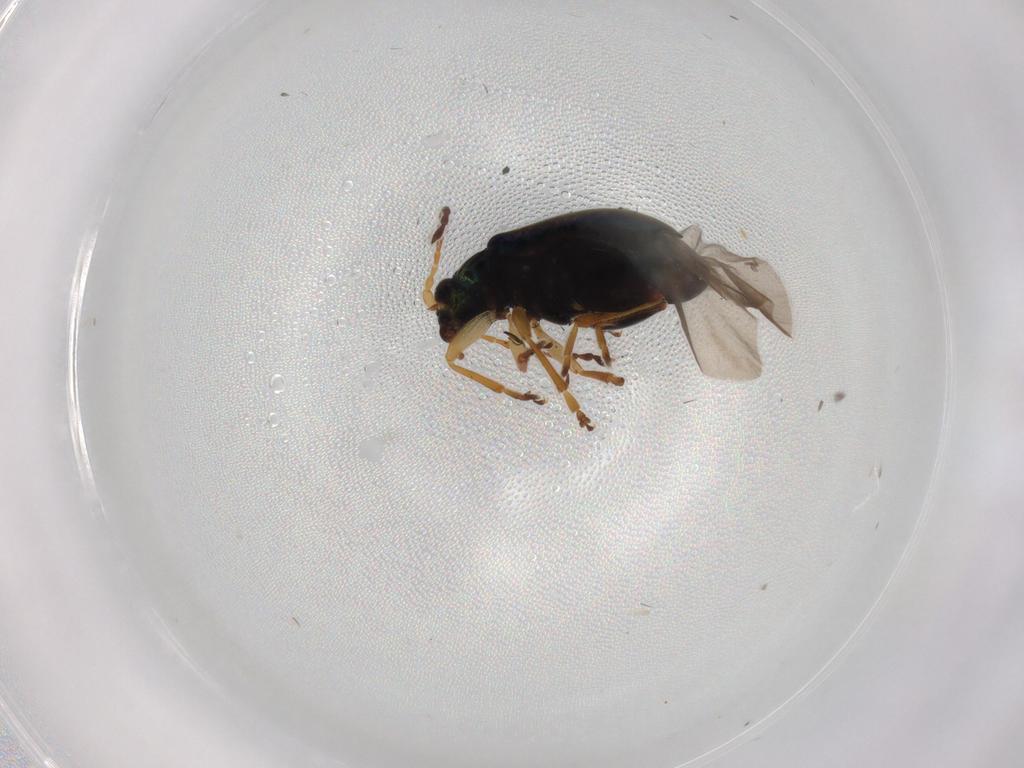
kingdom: Animalia
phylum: Arthropoda
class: Insecta
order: Coleoptera
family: Chrysomelidae
